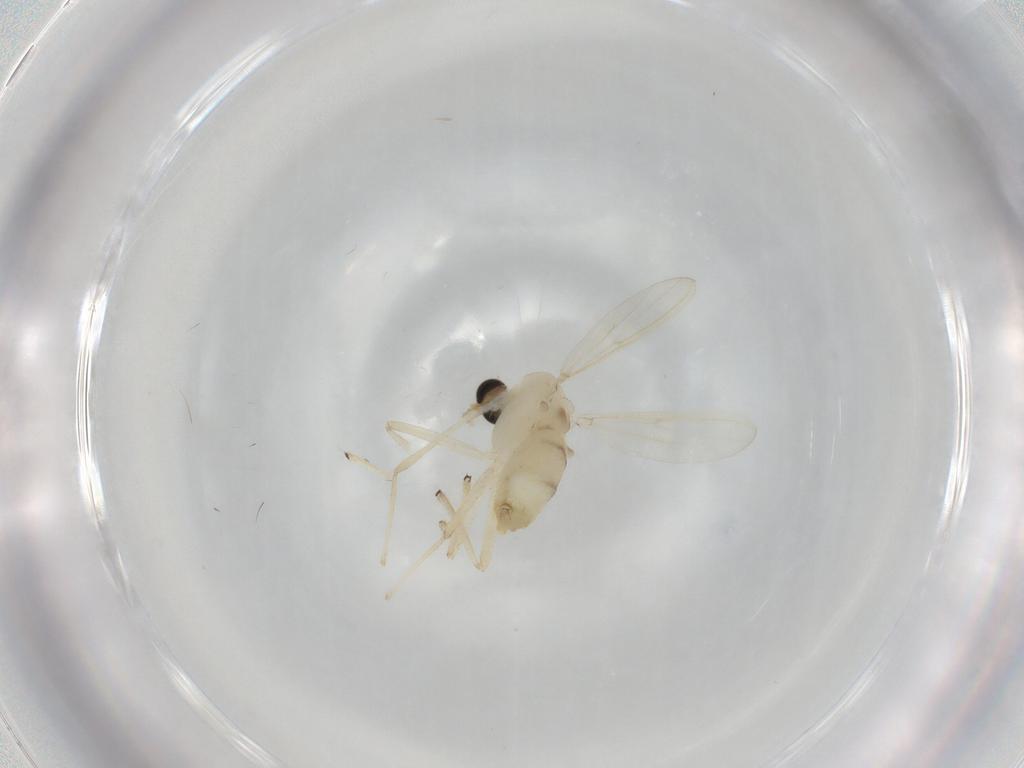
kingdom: Animalia
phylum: Arthropoda
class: Insecta
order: Diptera
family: Chironomidae
